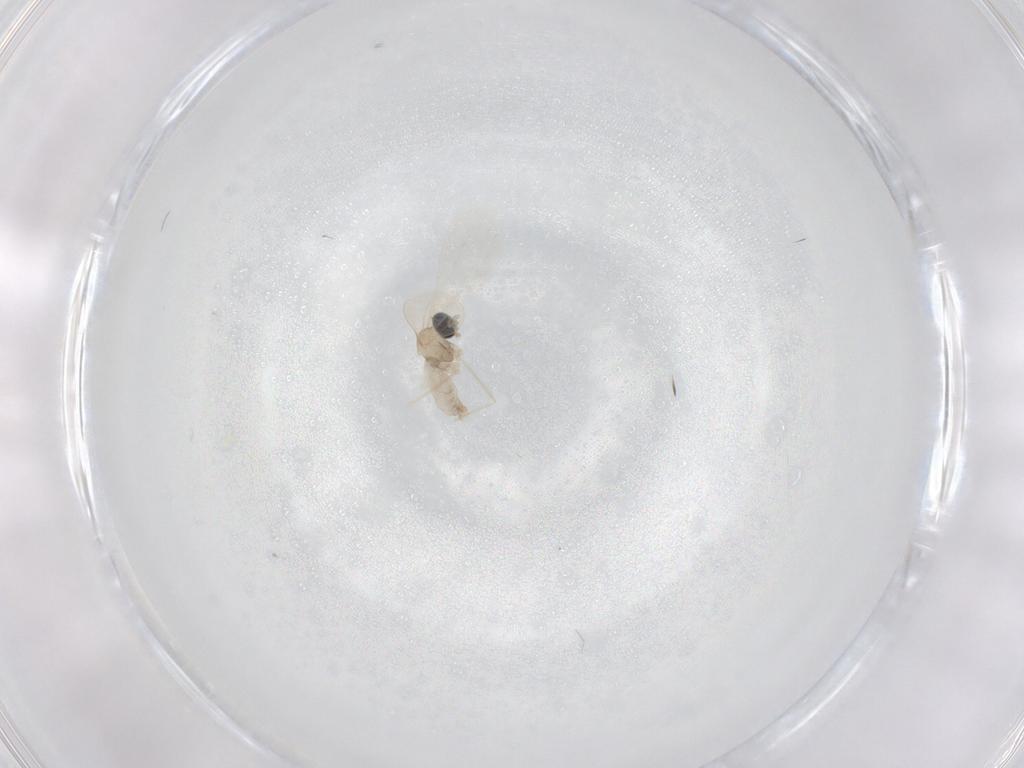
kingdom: Animalia
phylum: Arthropoda
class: Insecta
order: Diptera
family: Cecidomyiidae
